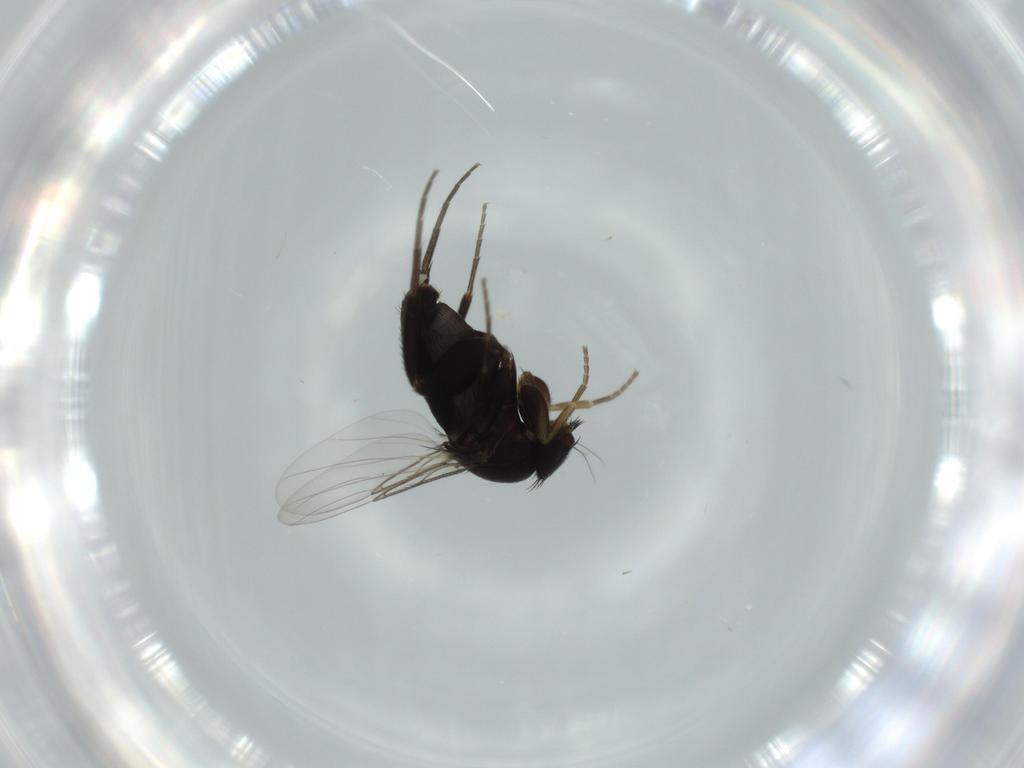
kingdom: Animalia
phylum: Arthropoda
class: Insecta
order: Diptera
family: Phoridae
